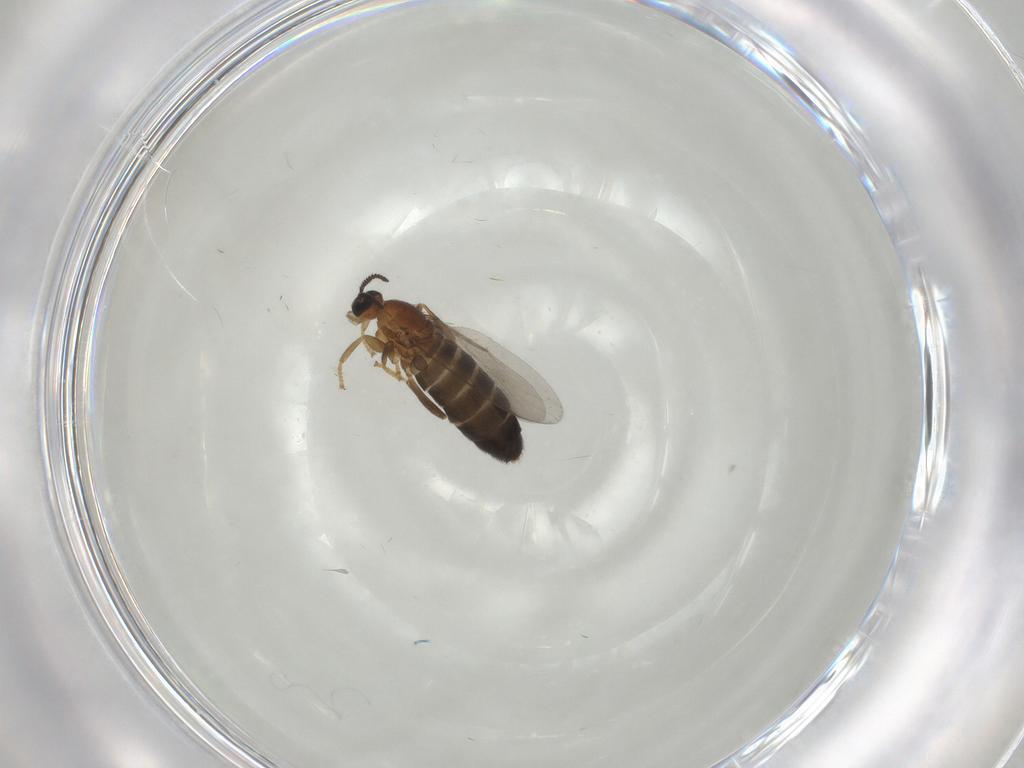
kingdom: Animalia
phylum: Arthropoda
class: Insecta
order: Diptera
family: Scatopsidae
